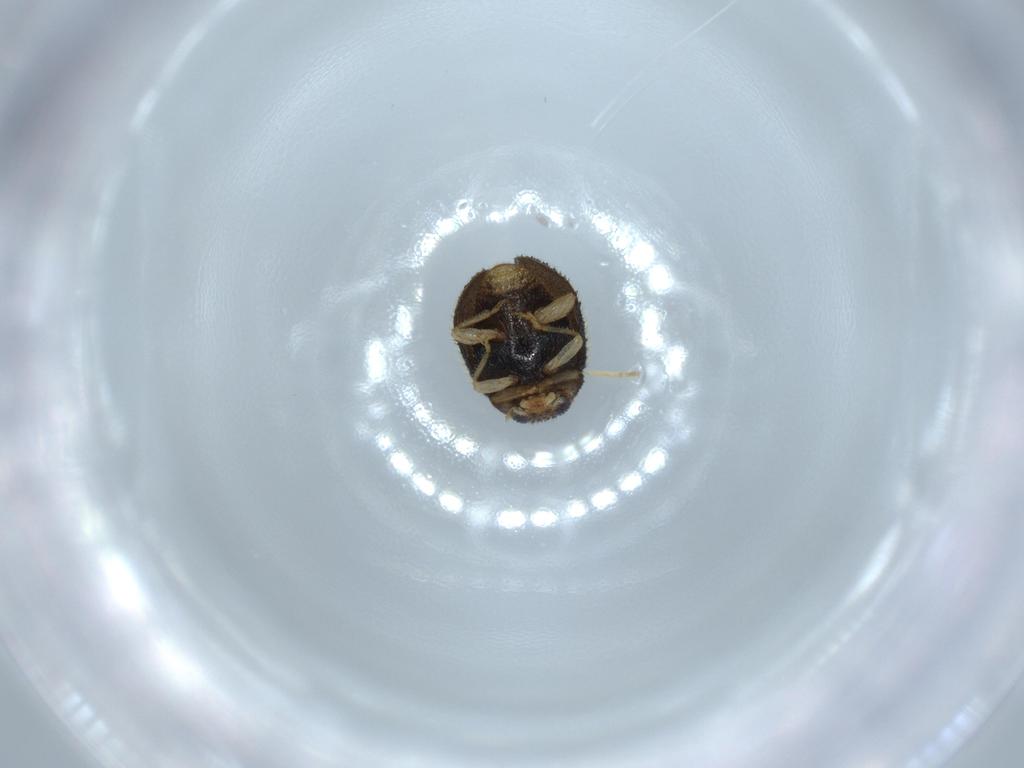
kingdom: Animalia
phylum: Arthropoda
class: Insecta
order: Coleoptera
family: Coccinellidae
